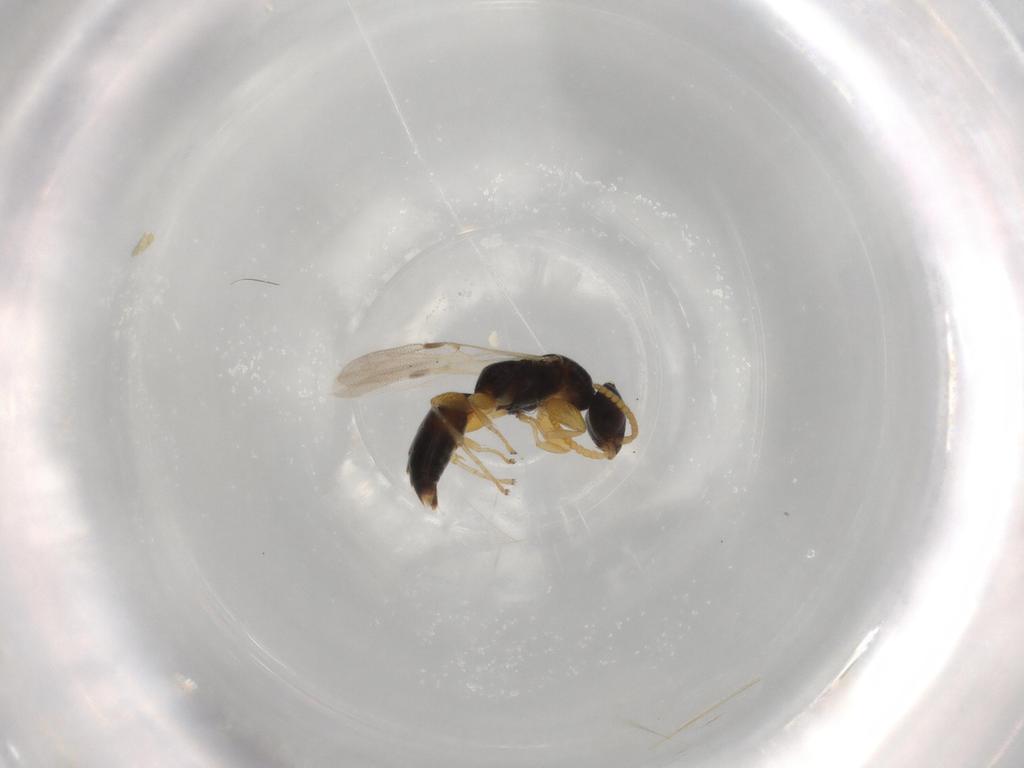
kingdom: Animalia
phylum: Arthropoda
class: Insecta
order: Hymenoptera
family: Bethylidae
